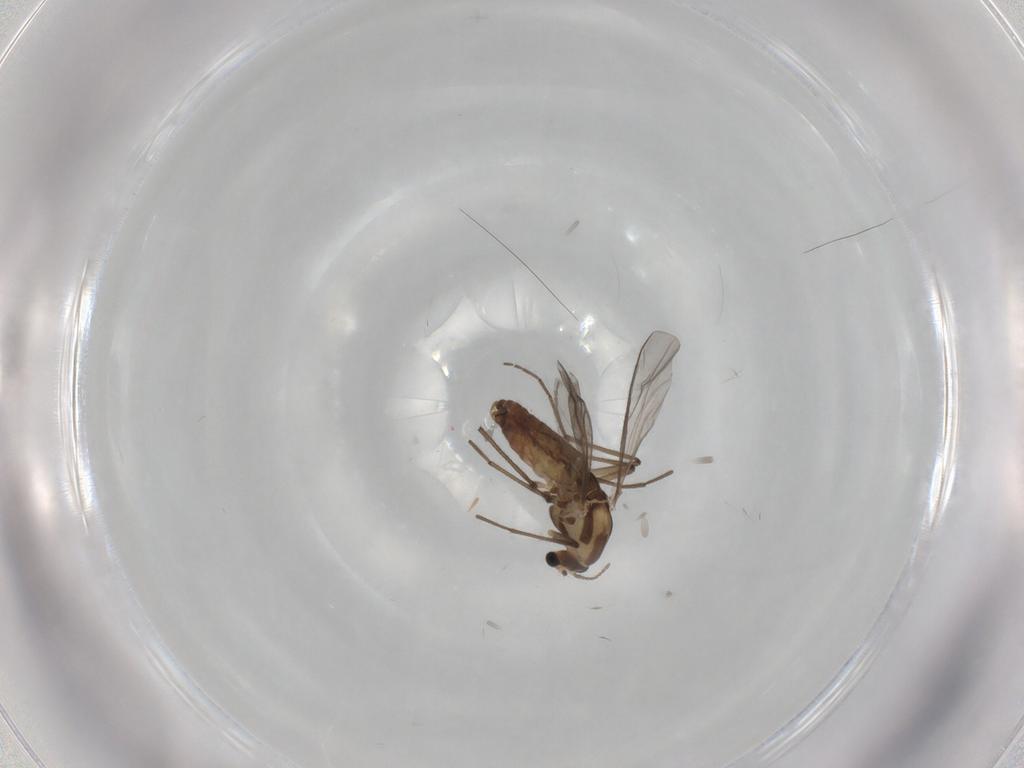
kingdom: Animalia
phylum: Arthropoda
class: Insecta
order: Diptera
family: Chironomidae
